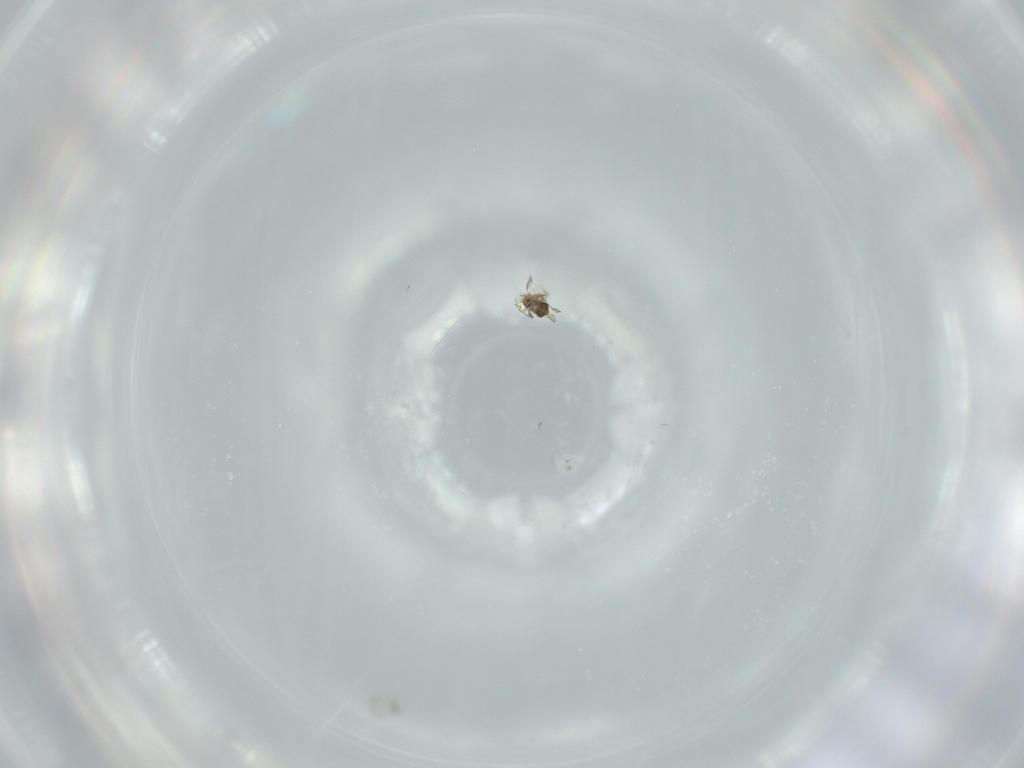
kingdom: Animalia
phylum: Arthropoda
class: Insecta
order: Hymenoptera
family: Trichogrammatidae
